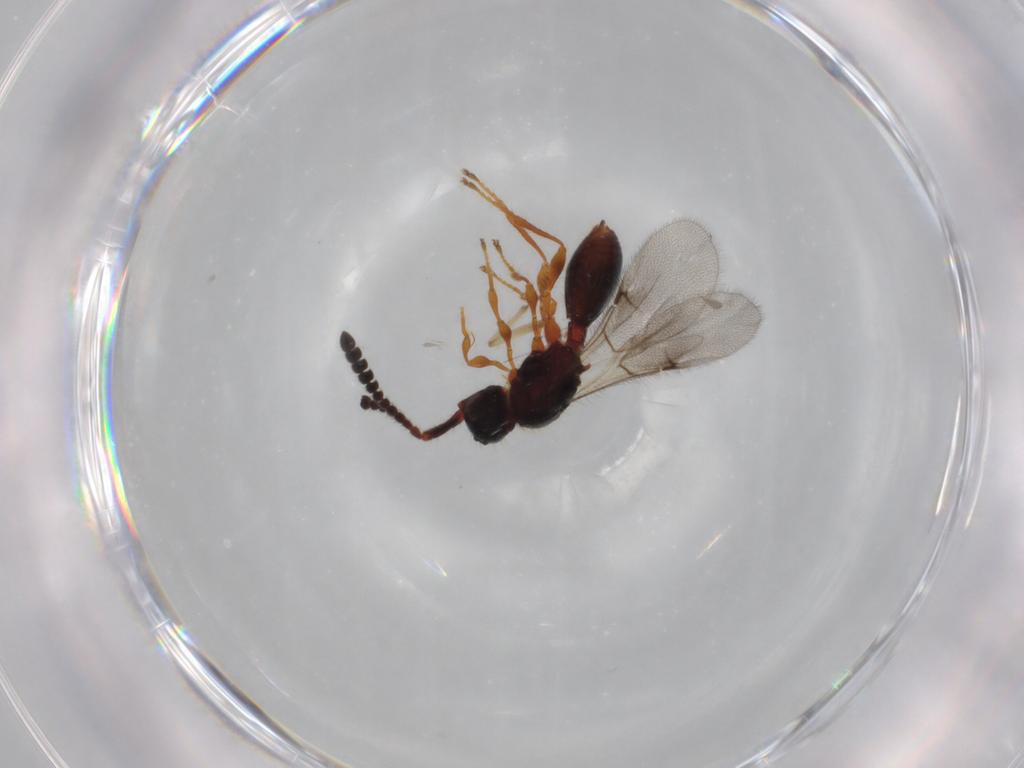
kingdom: Animalia
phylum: Arthropoda
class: Insecta
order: Hymenoptera
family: Diapriidae
